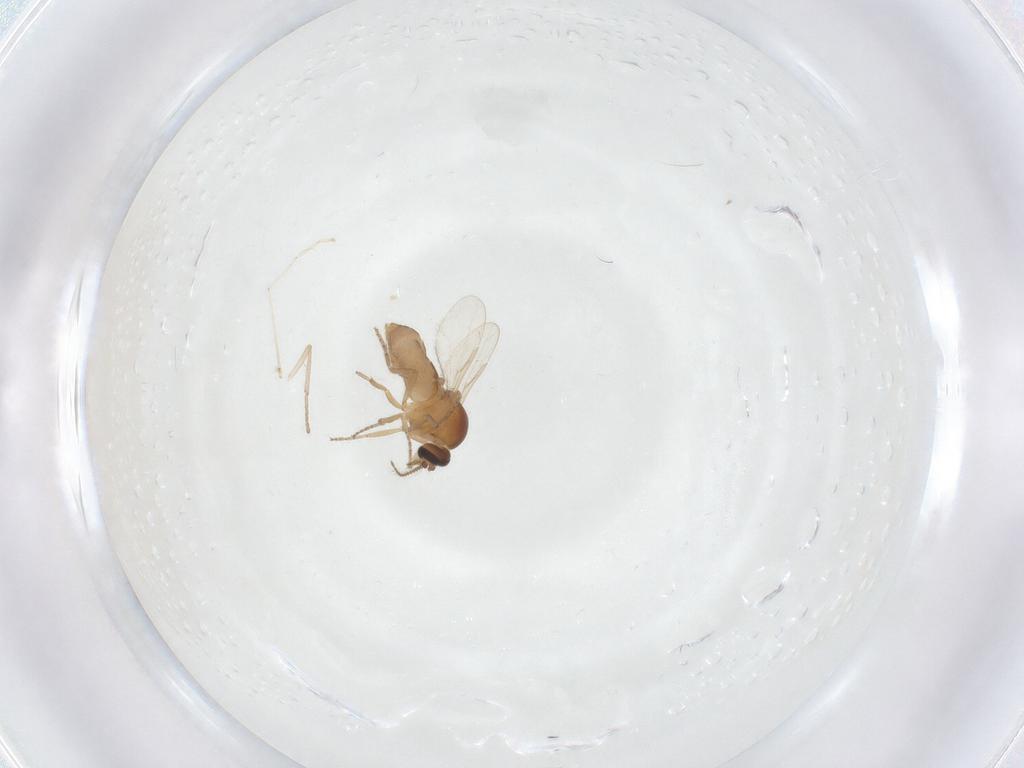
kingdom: Animalia
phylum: Arthropoda
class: Insecta
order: Diptera
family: Ceratopogonidae
